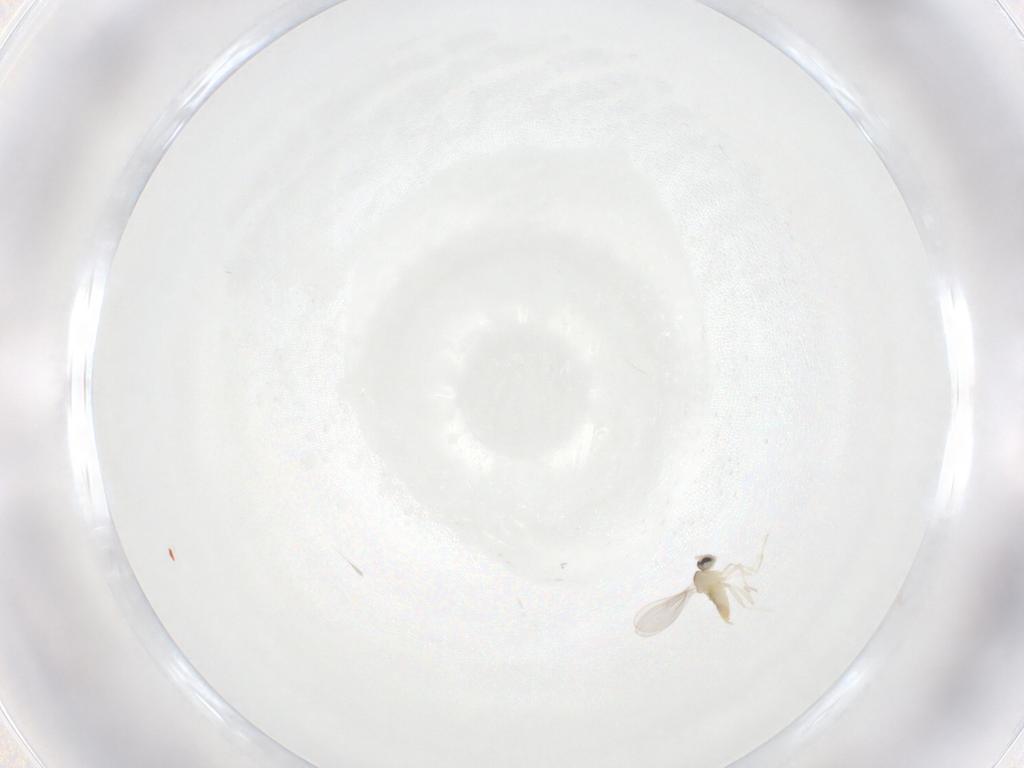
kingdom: Animalia
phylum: Arthropoda
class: Insecta
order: Diptera
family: Cecidomyiidae
